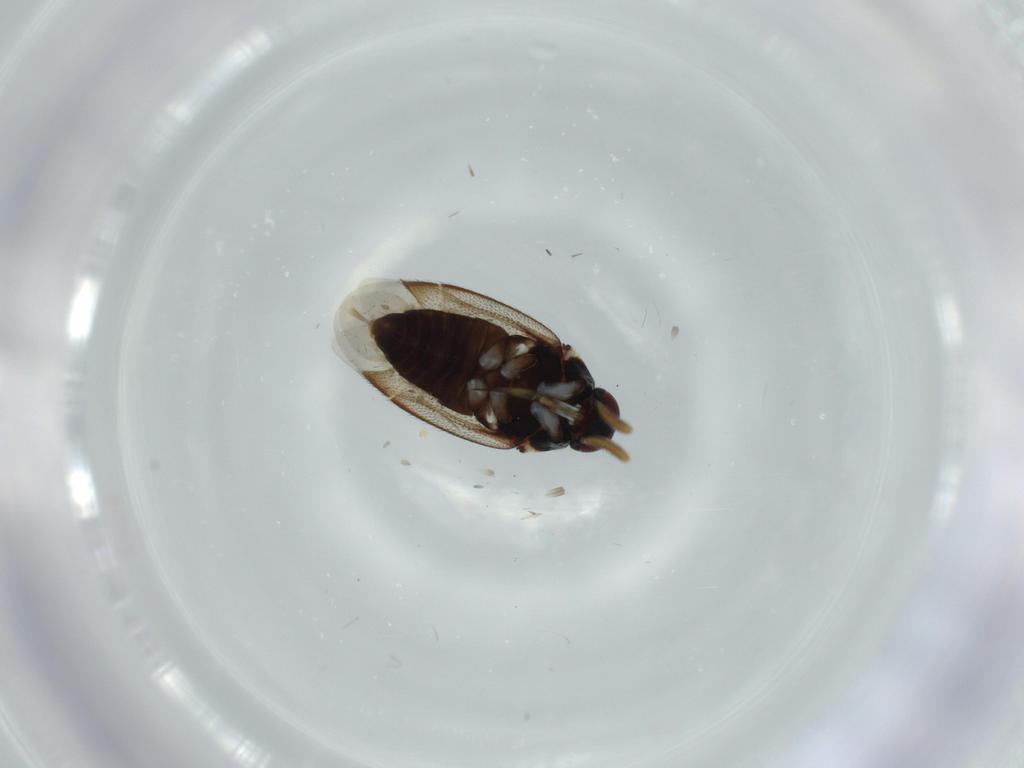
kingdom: Animalia
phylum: Arthropoda
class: Insecta
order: Hemiptera
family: Miridae
